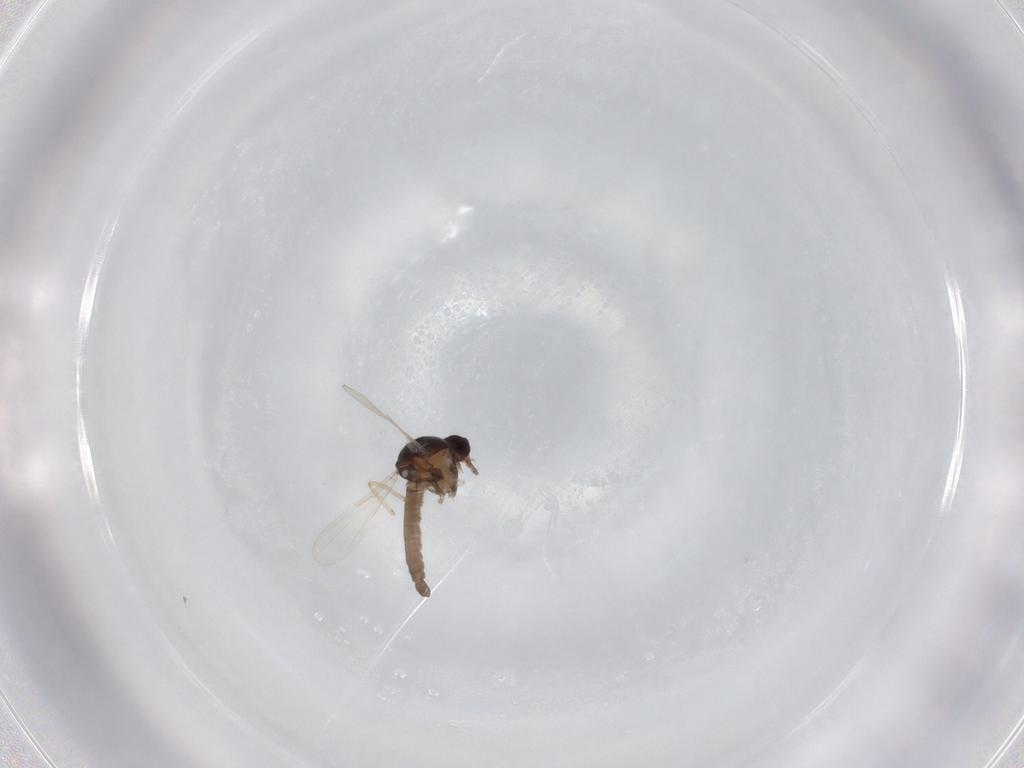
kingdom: Animalia
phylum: Arthropoda
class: Insecta
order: Diptera
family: Ceratopogonidae
